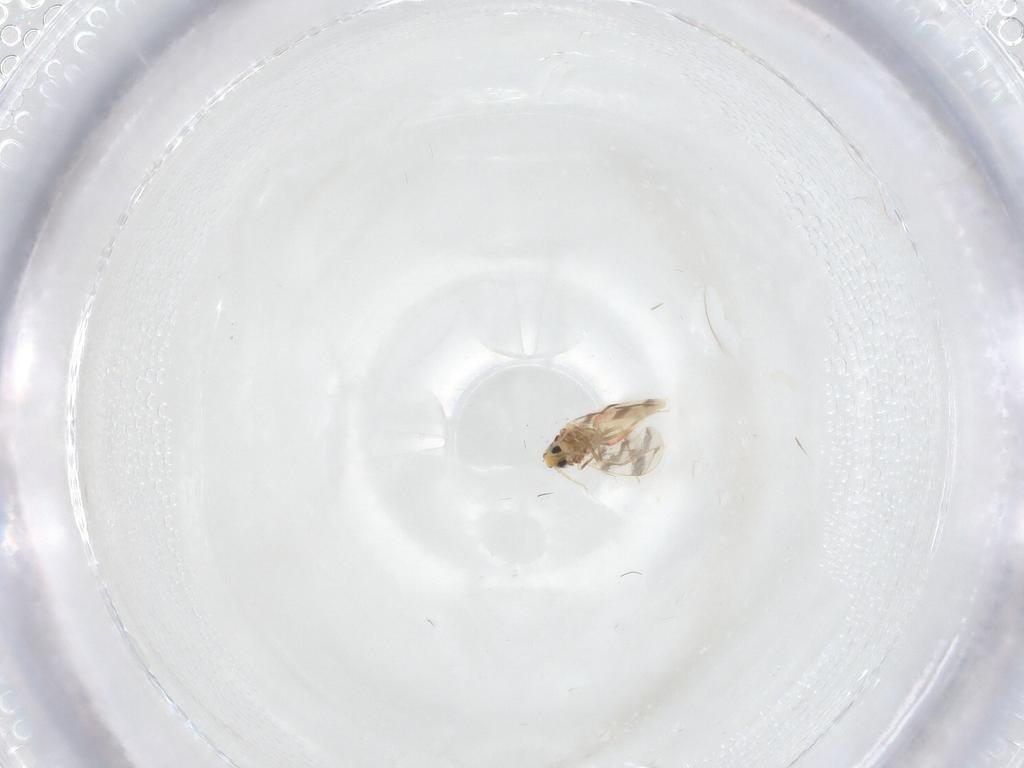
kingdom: Animalia
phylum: Arthropoda
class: Insecta
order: Hemiptera
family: Aleyrodidae
